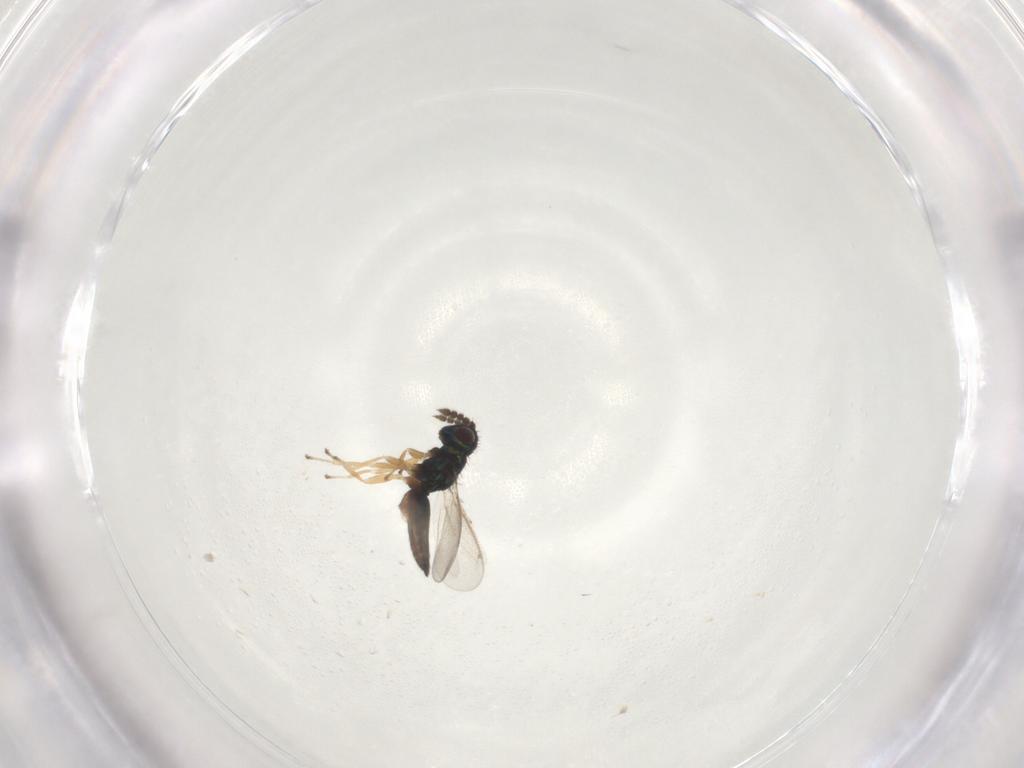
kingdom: Animalia
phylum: Arthropoda
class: Insecta
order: Hymenoptera
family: Eulophidae
